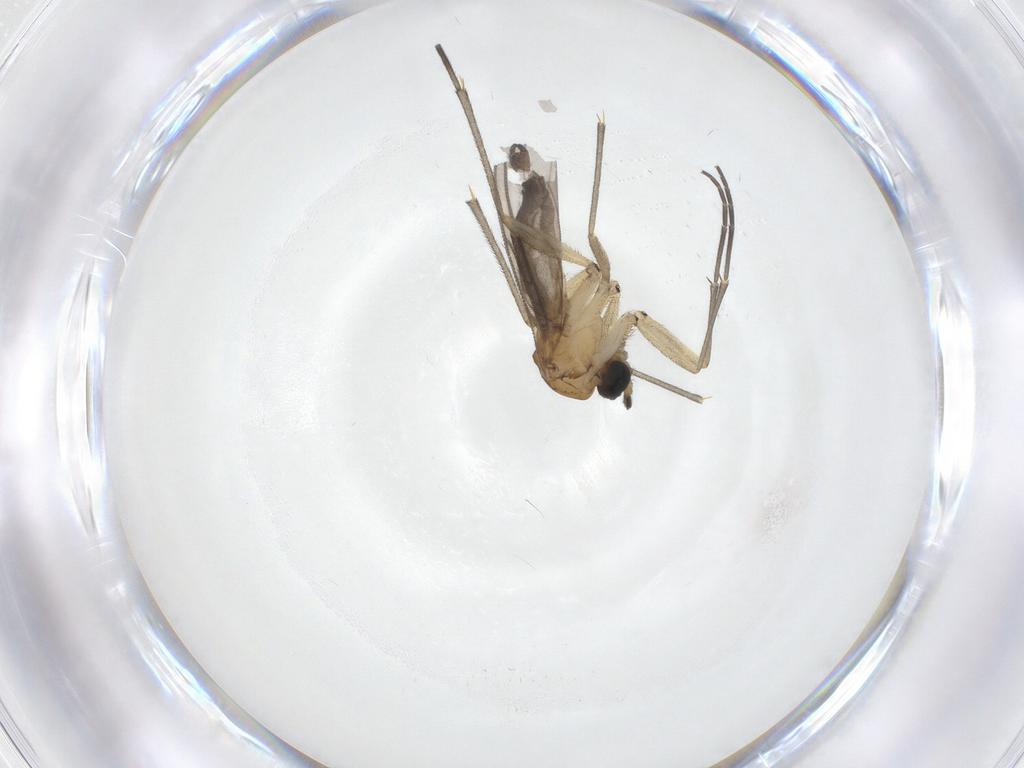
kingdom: Animalia
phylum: Arthropoda
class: Insecta
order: Diptera
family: Sciaridae
